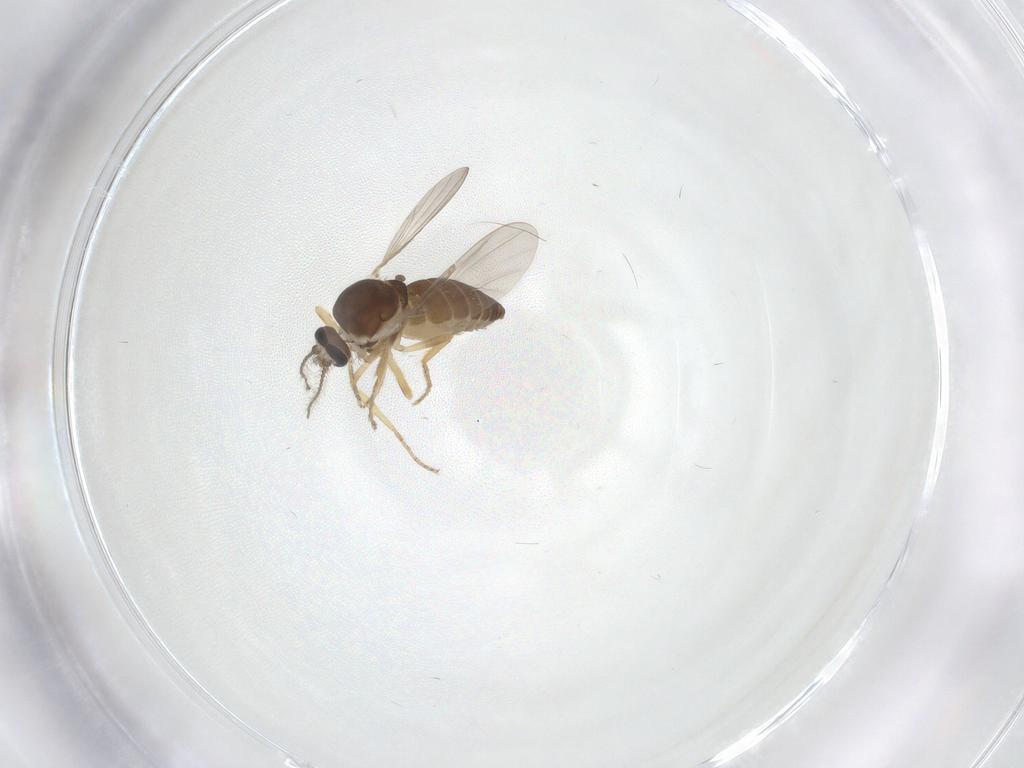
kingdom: Animalia
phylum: Arthropoda
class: Insecta
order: Diptera
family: Ceratopogonidae
